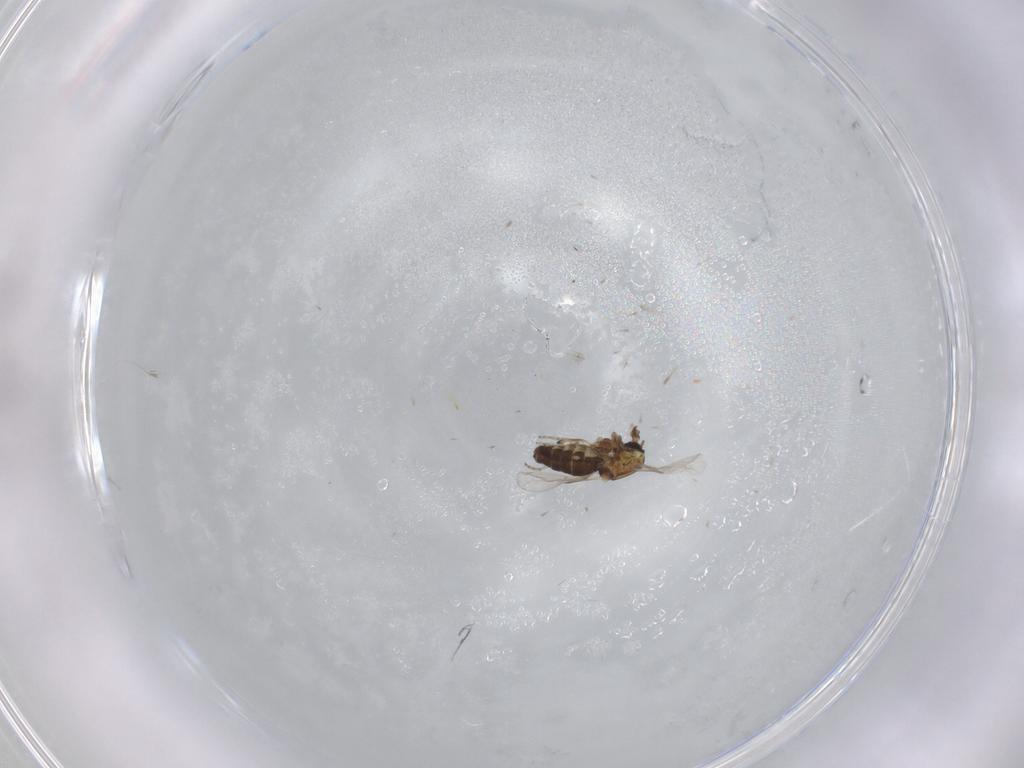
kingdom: Animalia
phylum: Arthropoda
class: Insecta
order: Diptera
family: Ceratopogonidae
